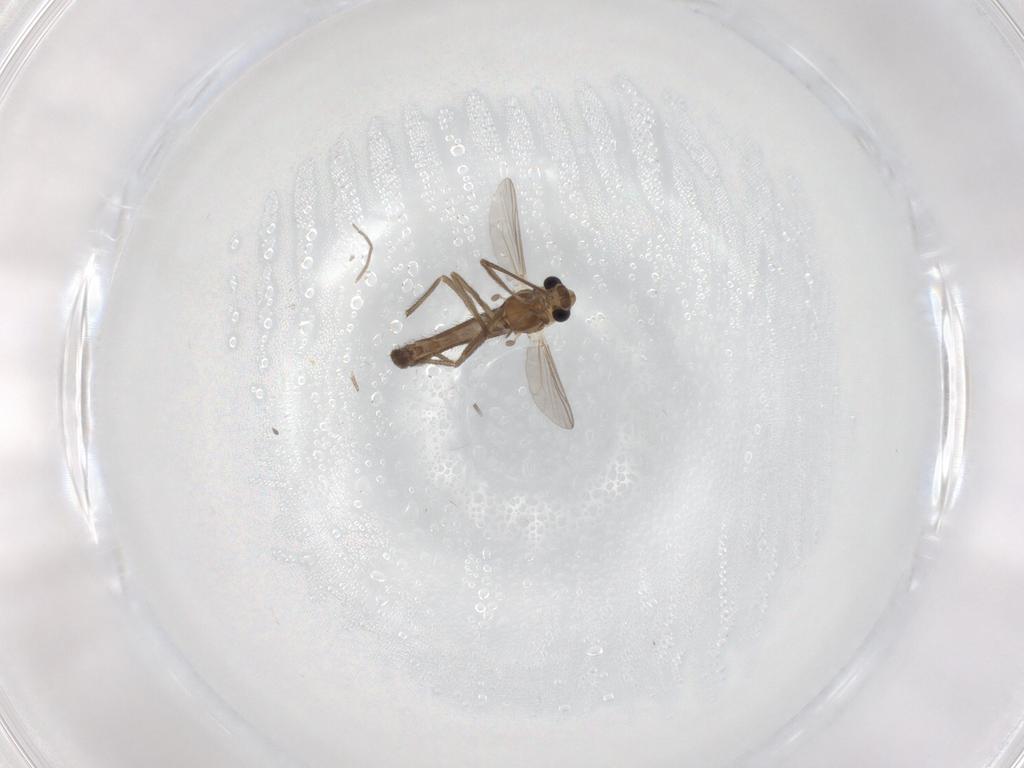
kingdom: Animalia
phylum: Arthropoda
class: Insecta
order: Diptera
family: Chironomidae
